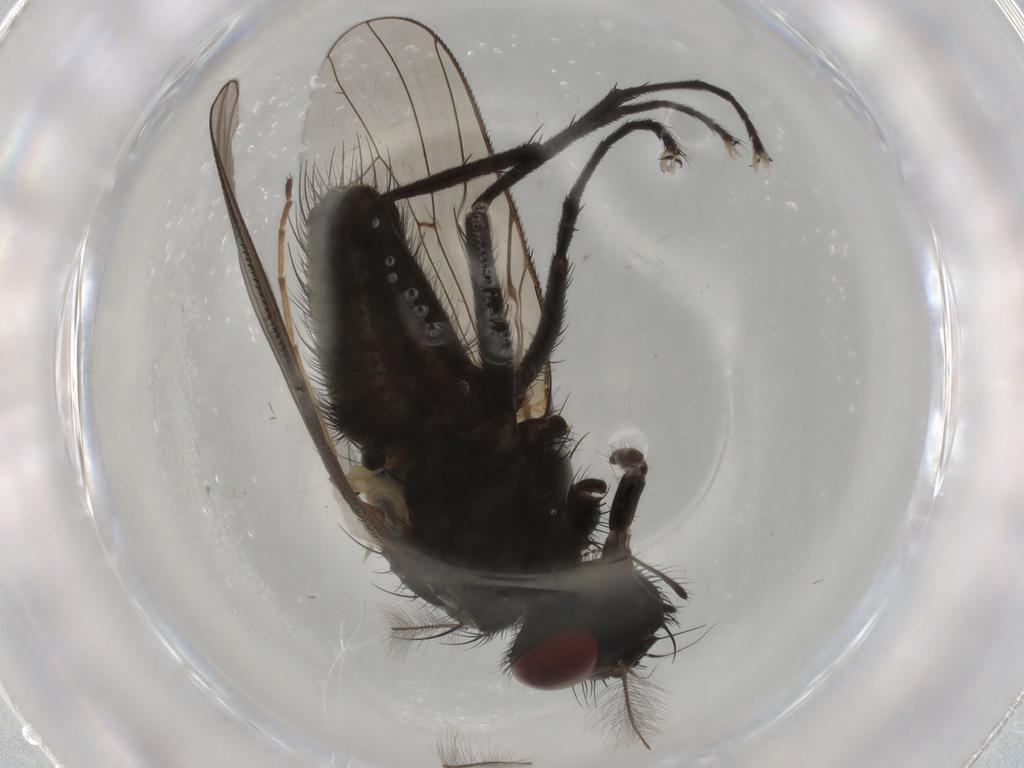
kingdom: Animalia
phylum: Arthropoda
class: Insecta
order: Diptera
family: Muscidae
